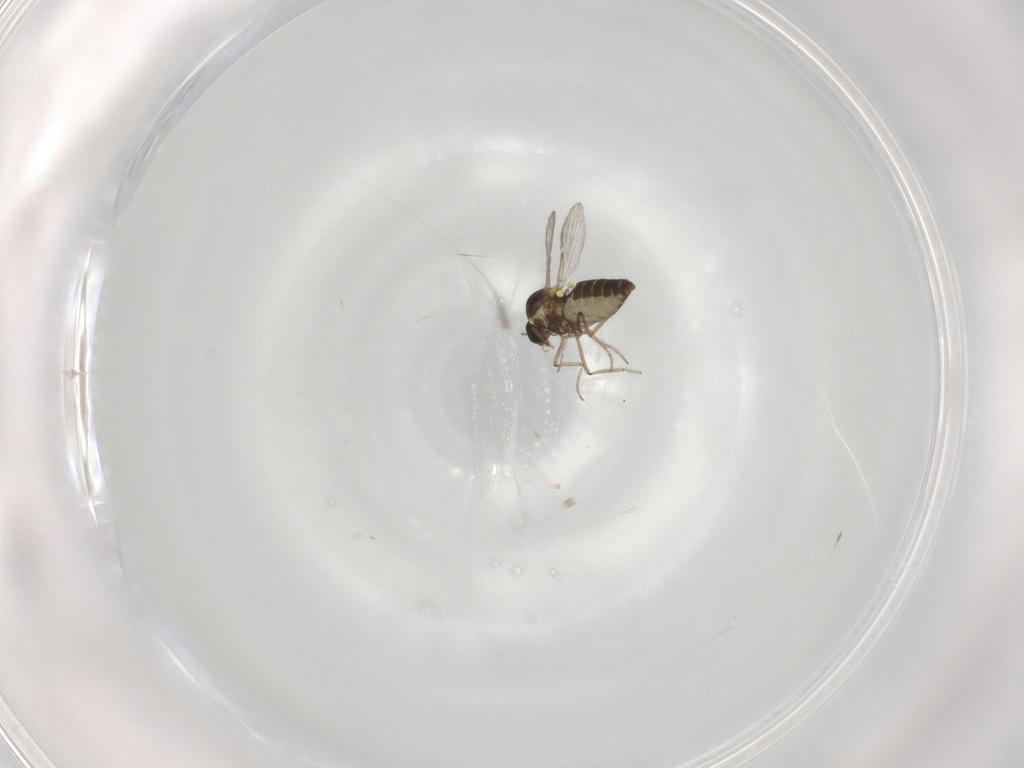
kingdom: Animalia
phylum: Arthropoda
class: Insecta
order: Diptera
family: Ceratopogonidae
